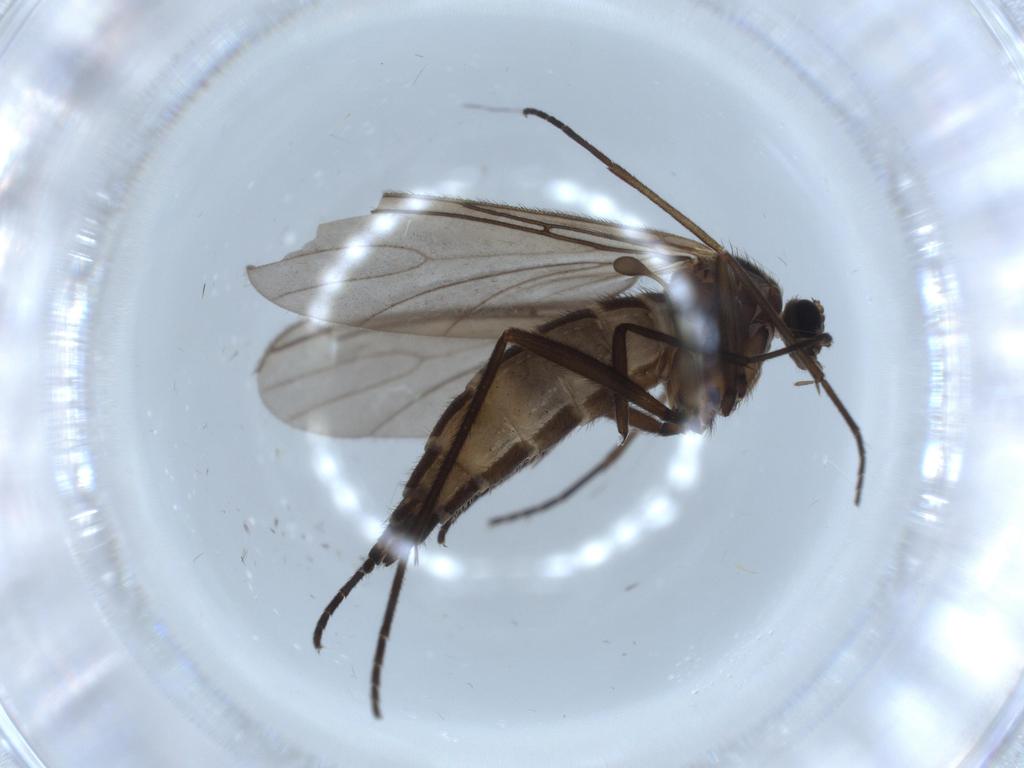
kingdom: Animalia
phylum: Arthropoda
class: Insecta
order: Diptera
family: Sciaridae
